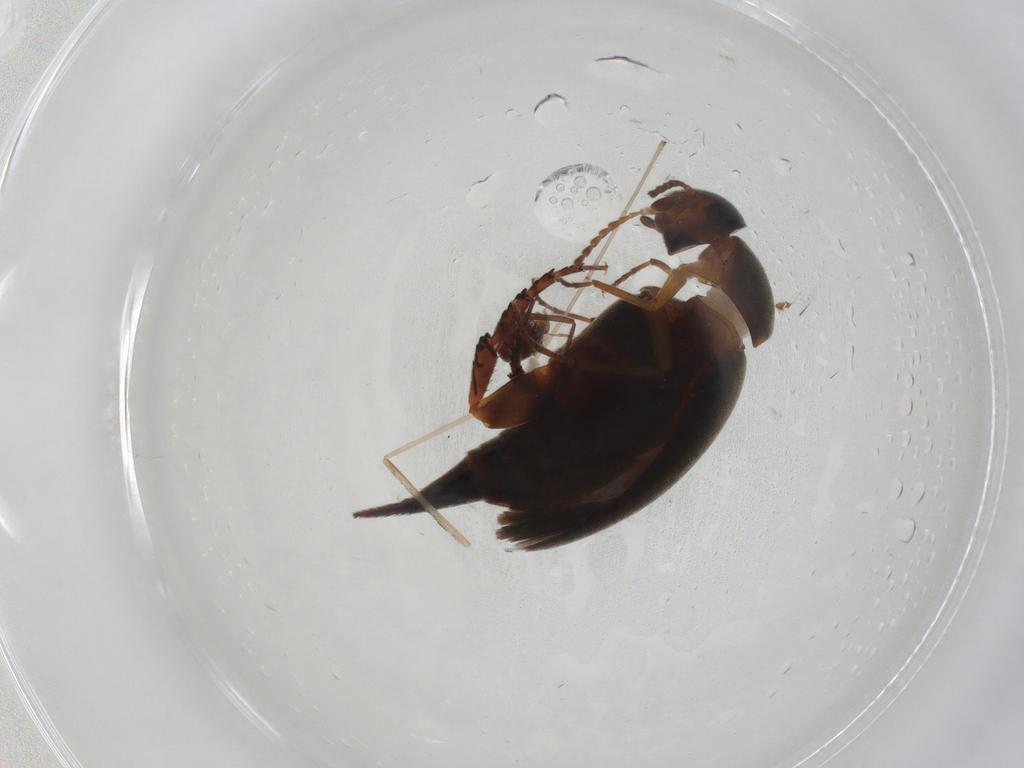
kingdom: Animalia
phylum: Arthropoda
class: Insecta
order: Coleoptera
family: Mordellidae
